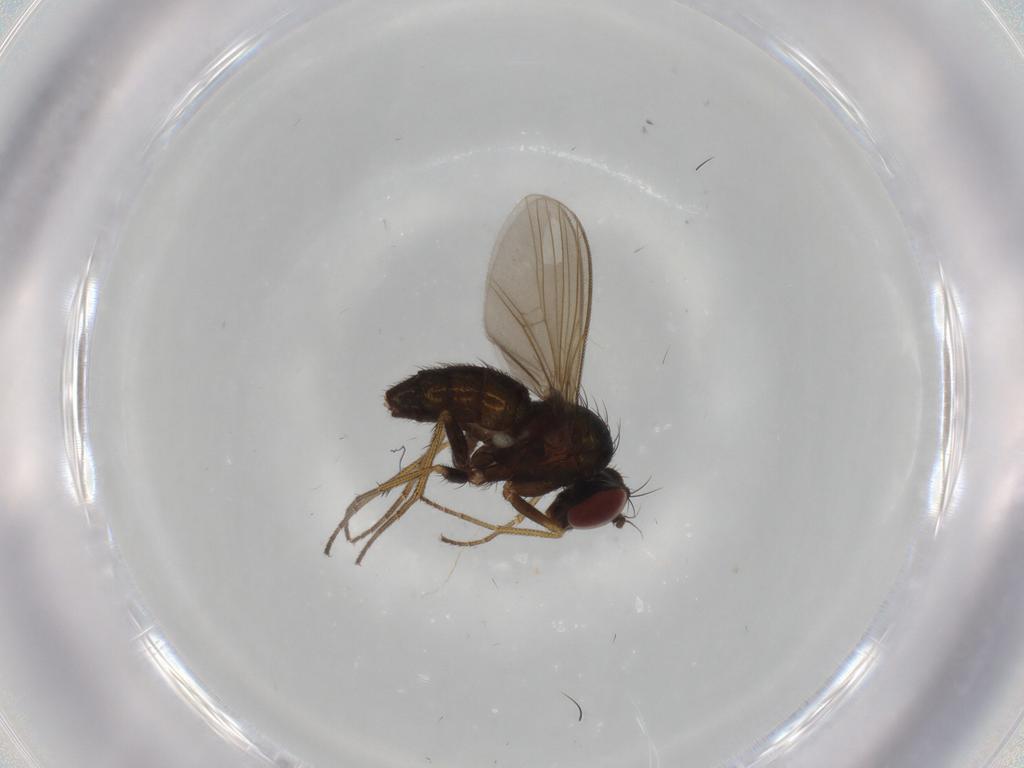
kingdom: Animalia
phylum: Arthropoda
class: Insecta
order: Diptera
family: Dolichopodidae
